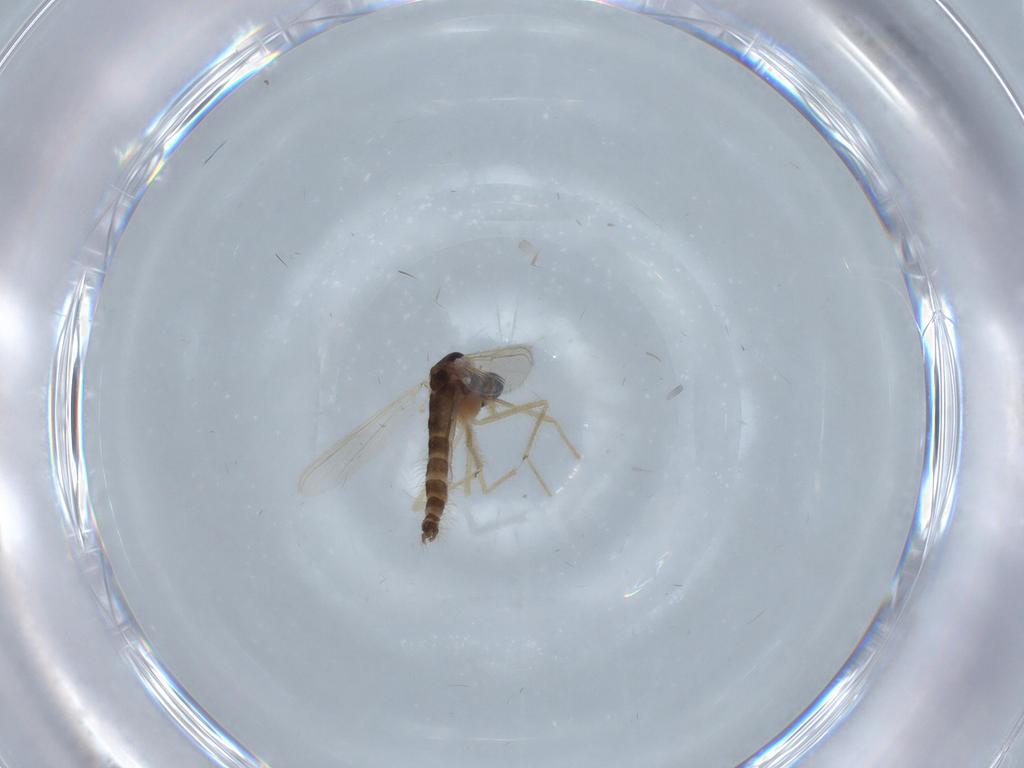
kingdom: Animalia
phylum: Arthropoda
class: Insecta
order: Diptera
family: Chironomidae
